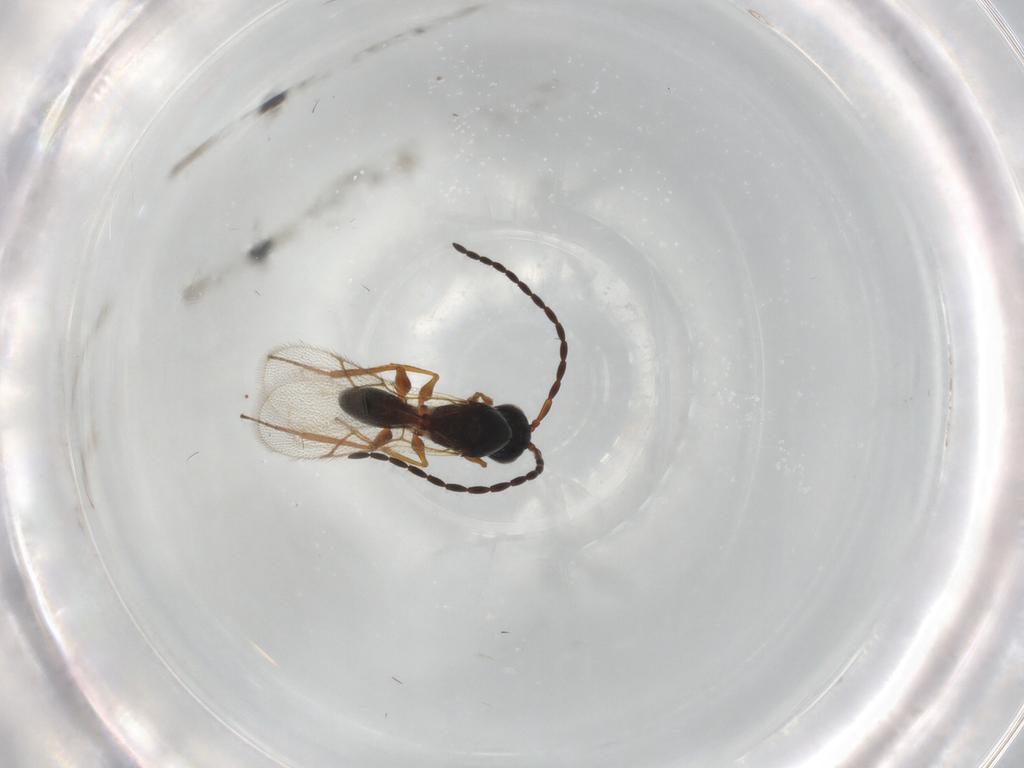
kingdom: Animalia
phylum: Arthropoda
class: Insecta
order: Hymenoptera
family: Figitidae
